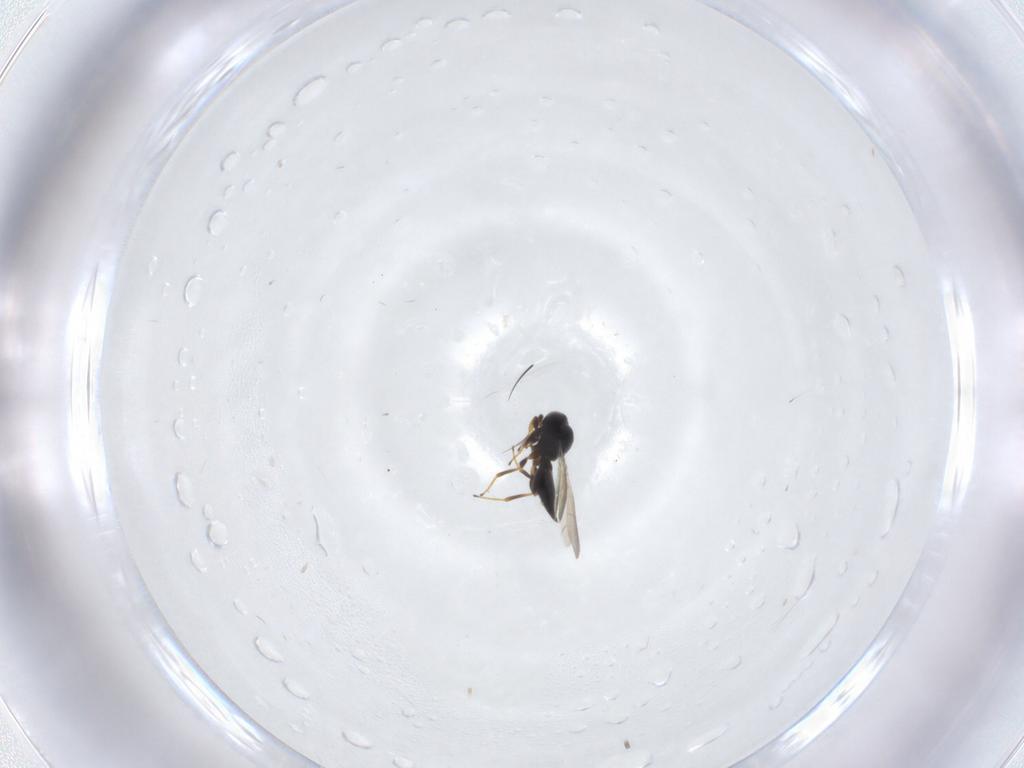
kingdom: Animalia
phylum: Arthropoda
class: Insecta
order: Hymenoptera
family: Platygastridae
